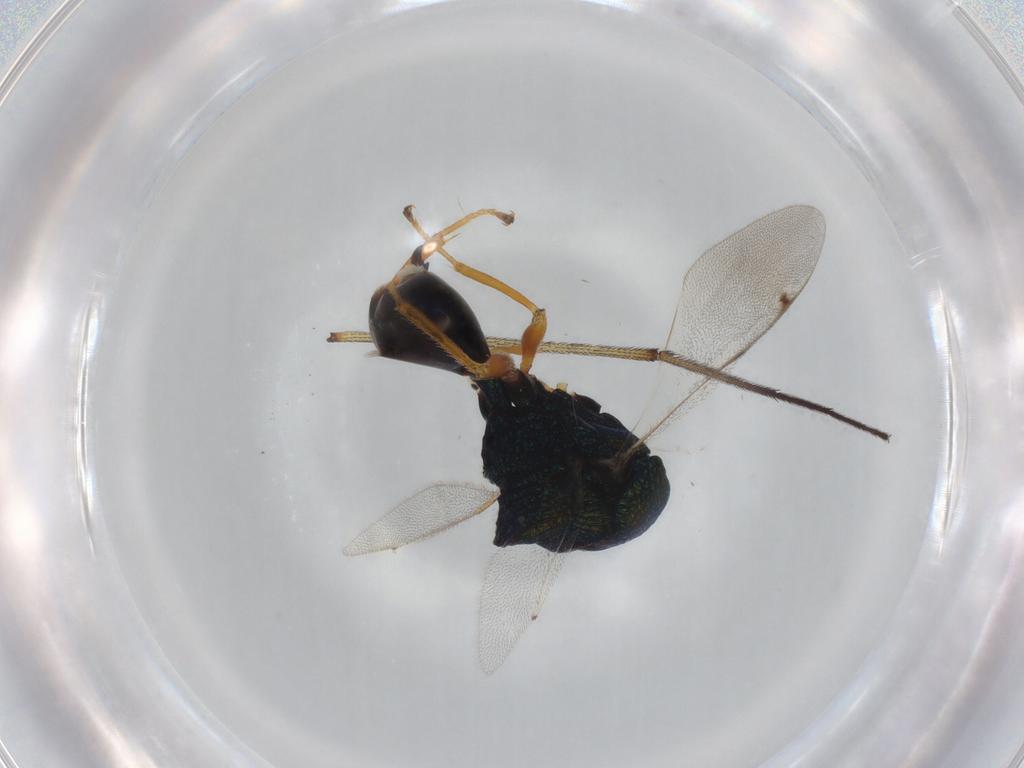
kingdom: Animalia
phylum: Arthropoda
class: Insecta
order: Hymenoptera
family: Eucharitidae
